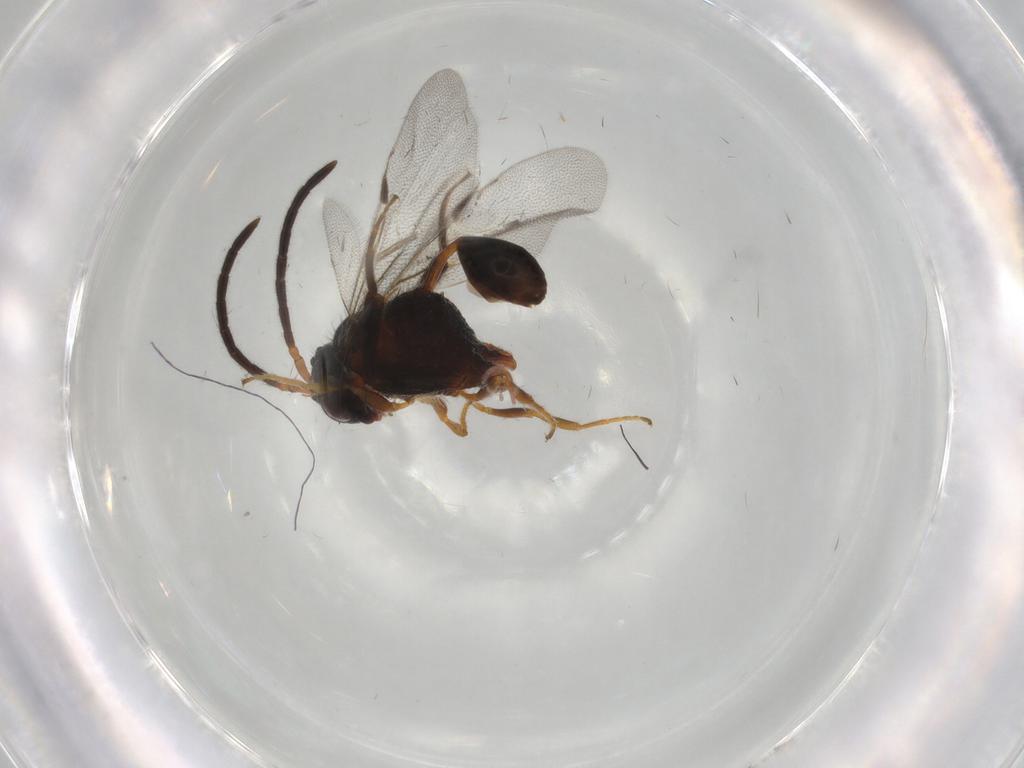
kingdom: Animalia
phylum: Arthropoda
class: Insecta
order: Hymenoptera
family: Evaniidae
